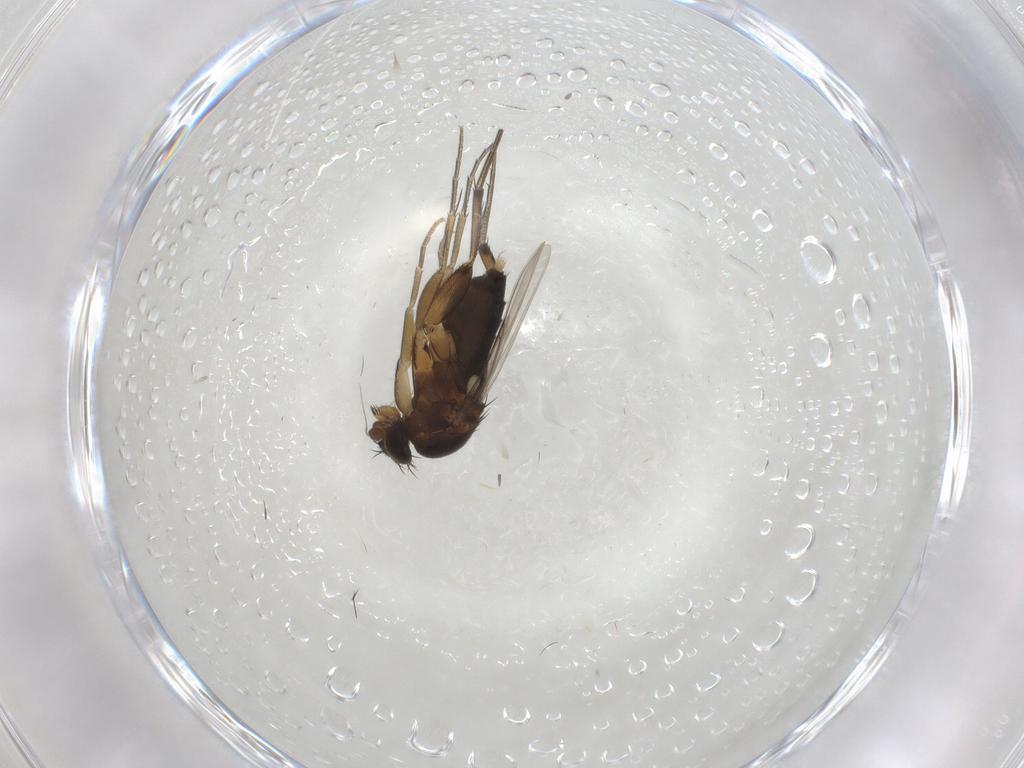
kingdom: Animalia
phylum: Arthropoda
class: Insecta
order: Diptera
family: Phoridae
